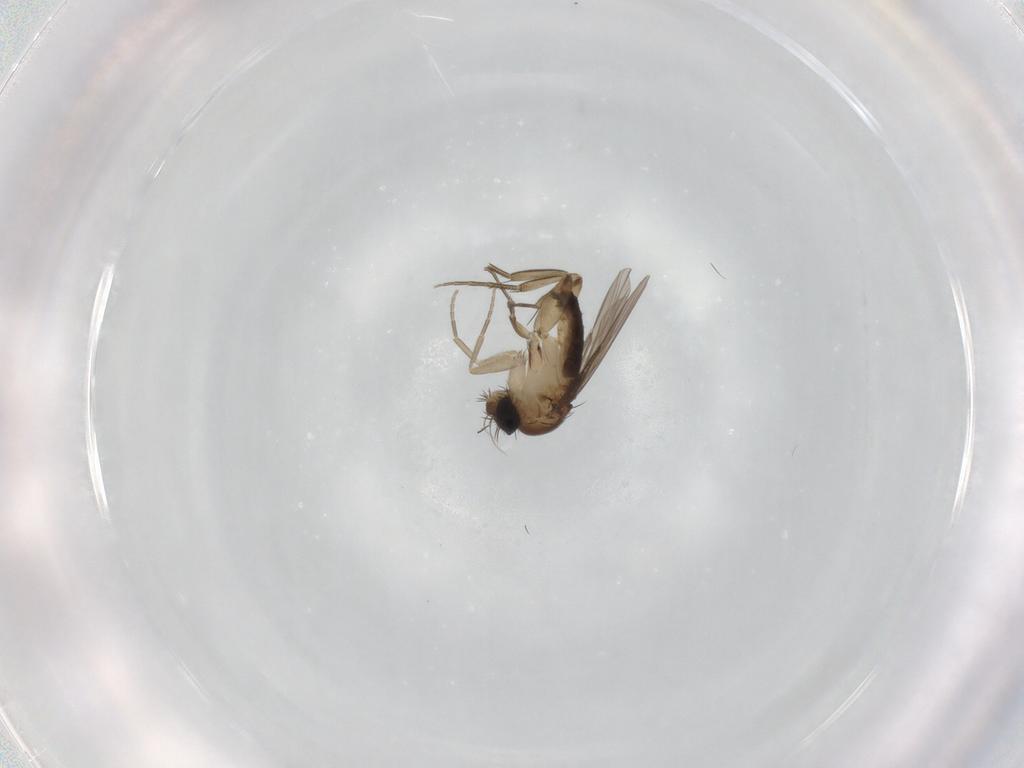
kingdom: Animalia
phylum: Arthropoda
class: Insecta
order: Diptera
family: Phoridae
